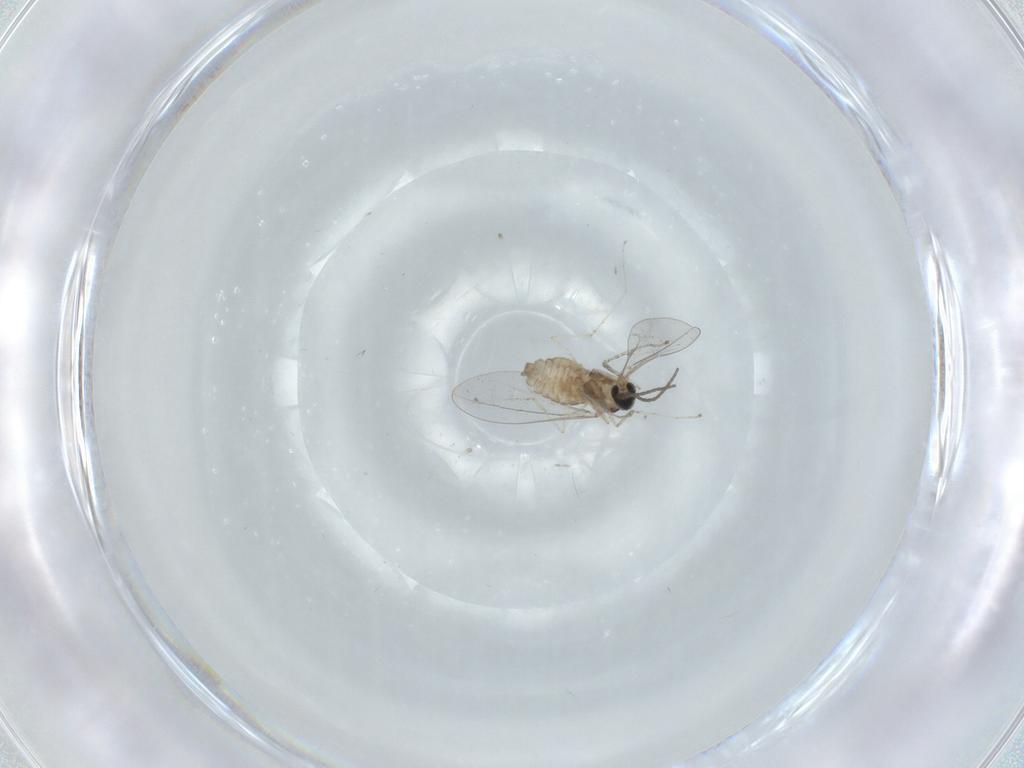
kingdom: Animalia
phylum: Arthropoda
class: Insecta
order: Diptera
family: Cecidomyiidae
